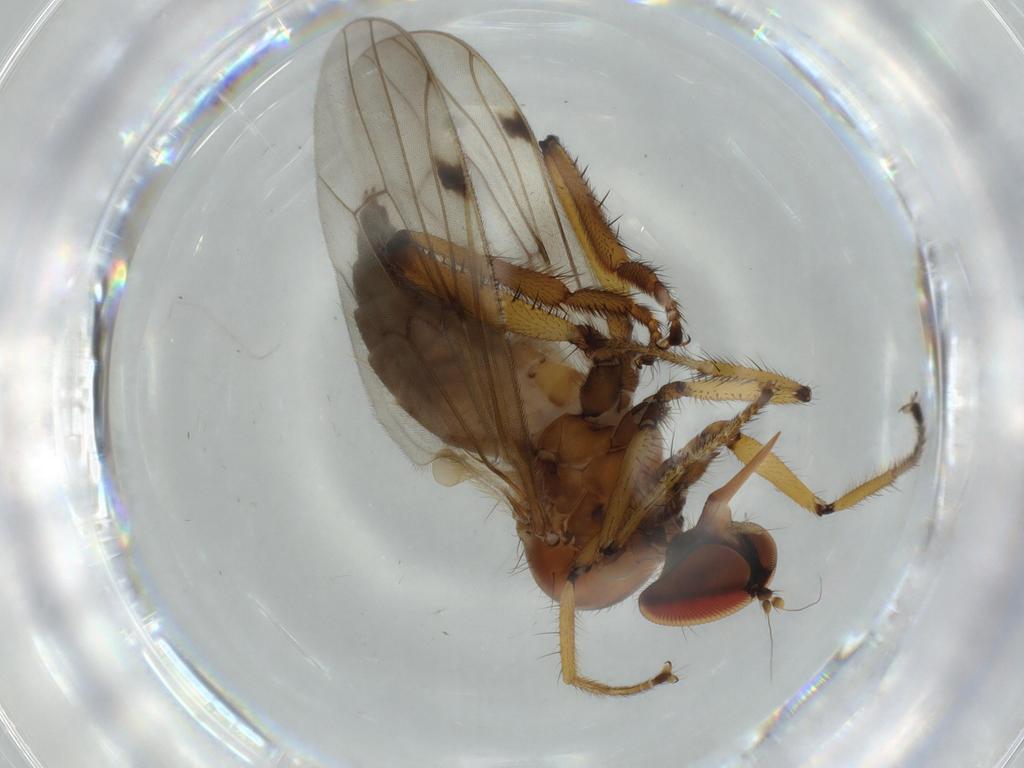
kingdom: Animalia
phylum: Arthropoda
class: Insecta
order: Diptera
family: Hybotidae
